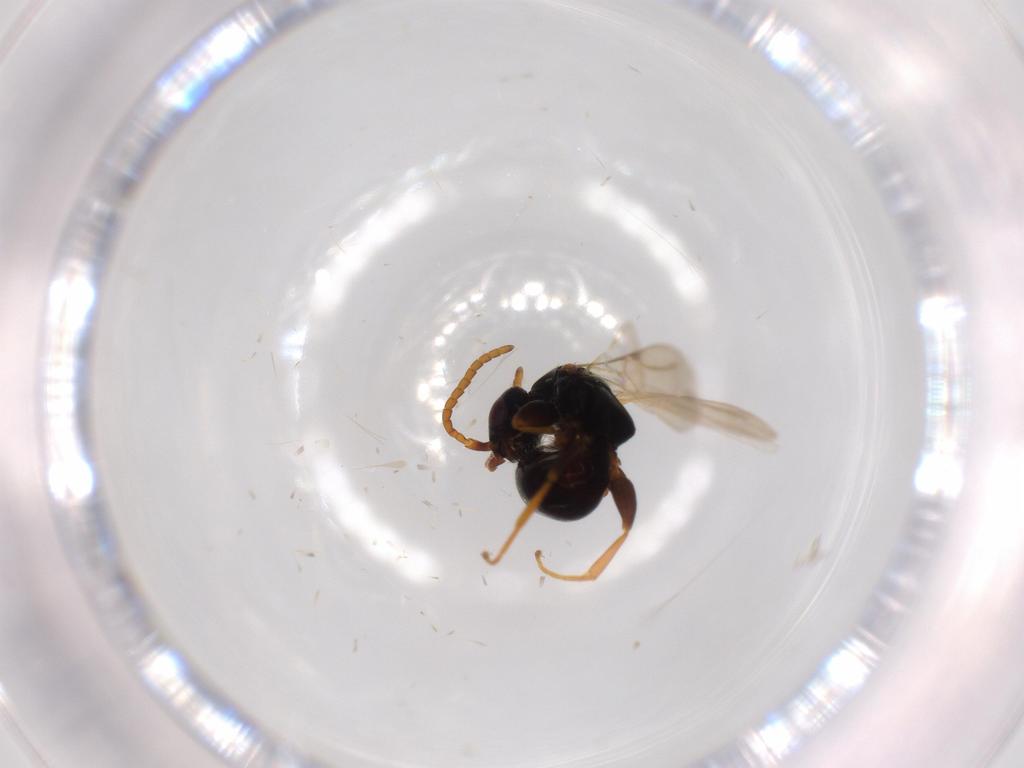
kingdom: Animalia
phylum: Arthropoda
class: Insecta
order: Hymenoptera
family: Bethylidae
